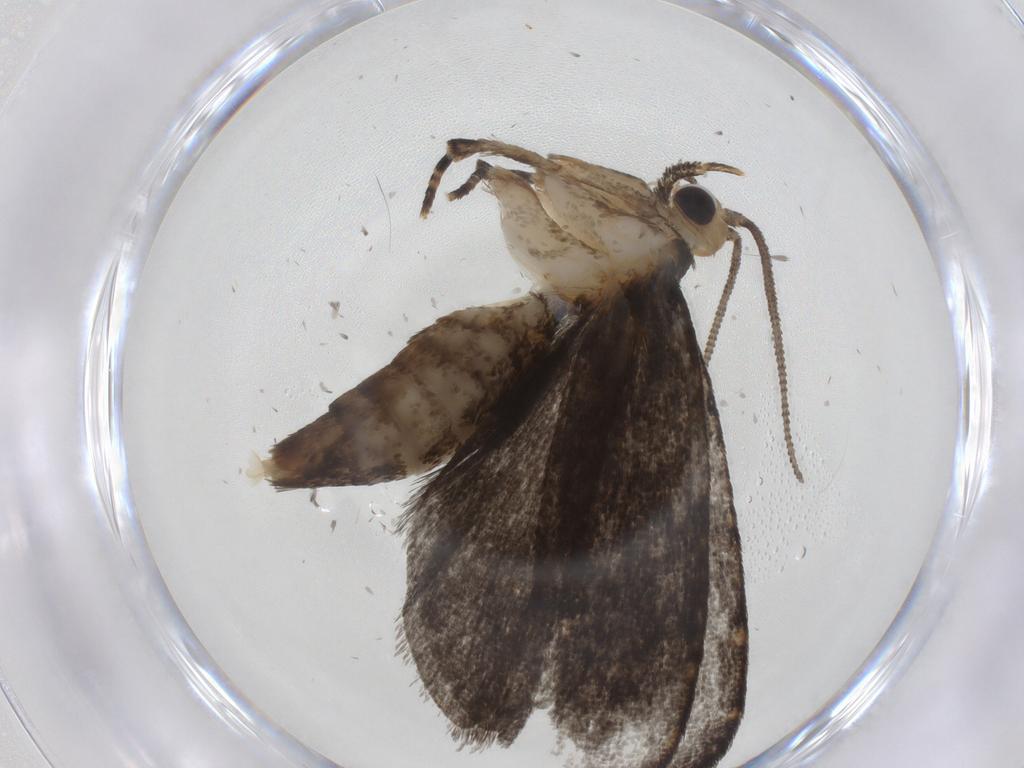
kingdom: Animalia
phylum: Arthropoda
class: Insecta
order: Lepidoptera
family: Tineidae
